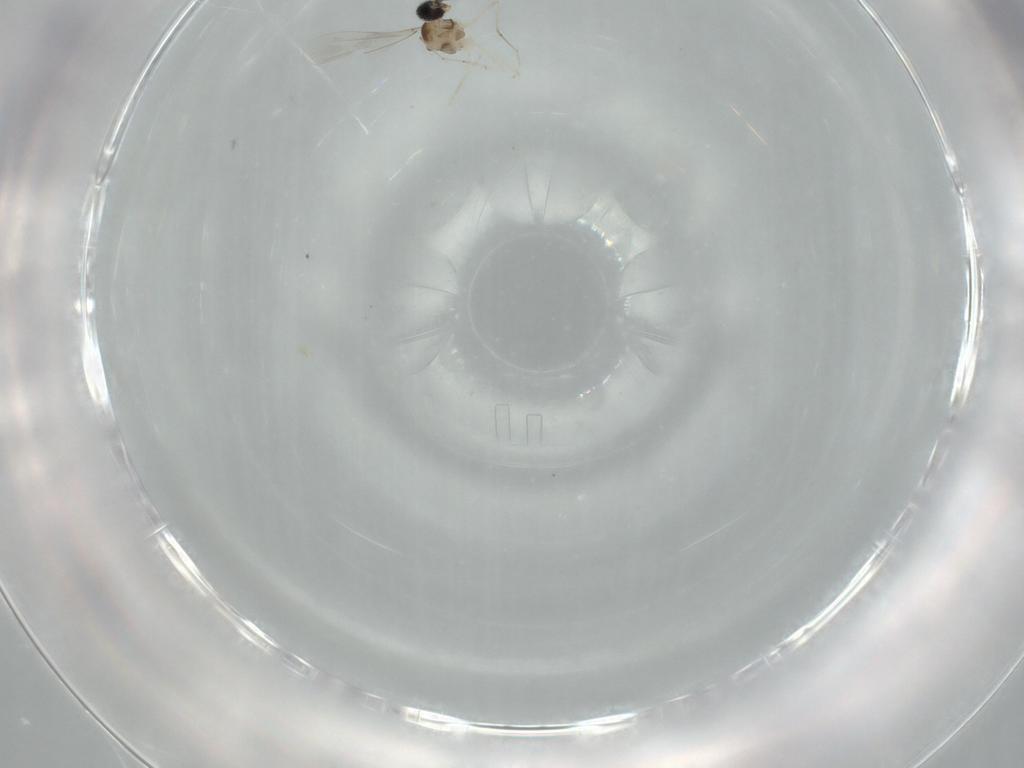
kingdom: Animalia
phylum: Arthropoda
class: Insecta
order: Diptera
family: Cecidomyiidae
